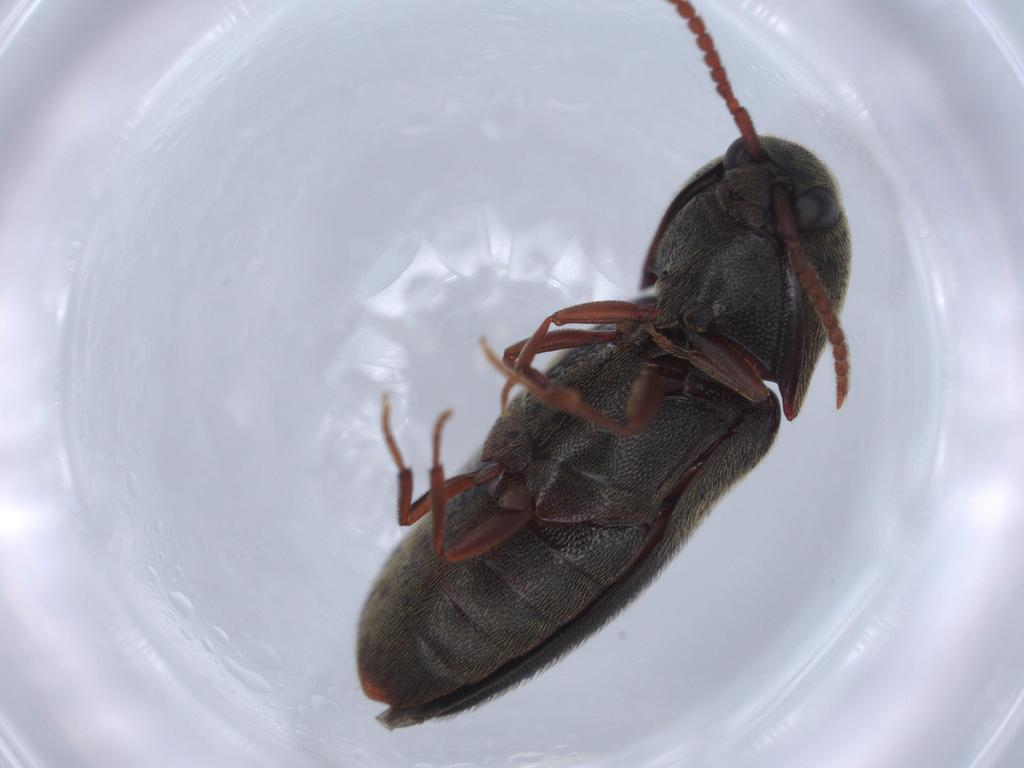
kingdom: Animalia
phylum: Arthropoda
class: Insecta
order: Coleoptera
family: Eucnemidae
